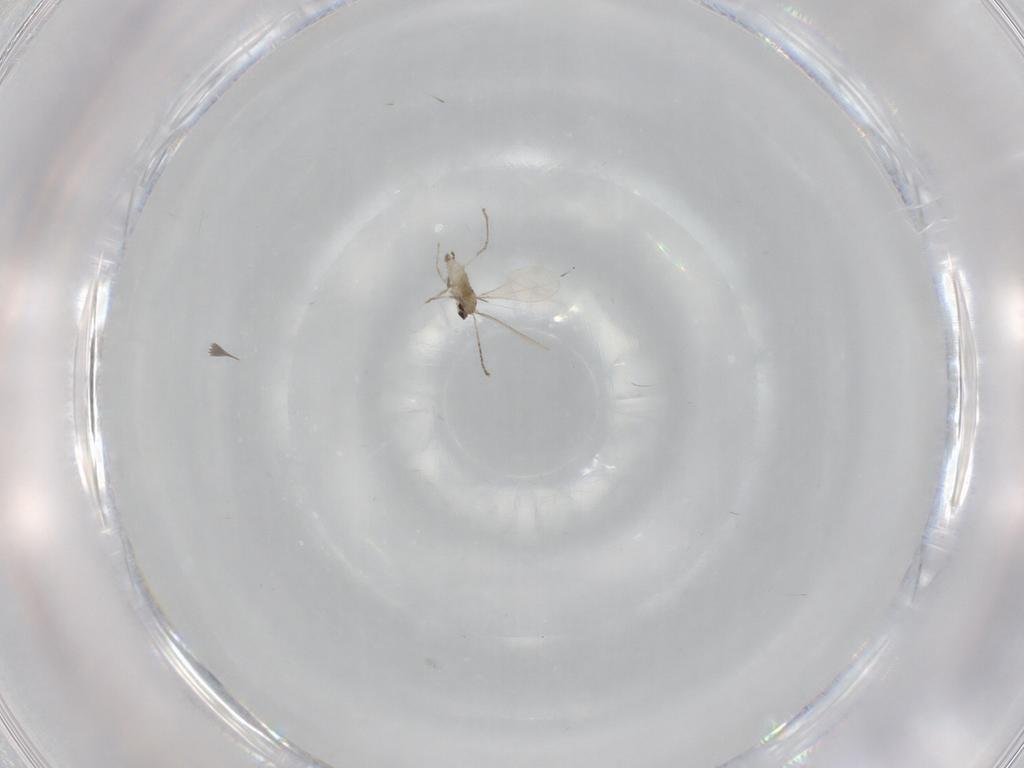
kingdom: Animalia
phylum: Arthropoda
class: Insecta
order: Diptera
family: Cecidomyiidae
